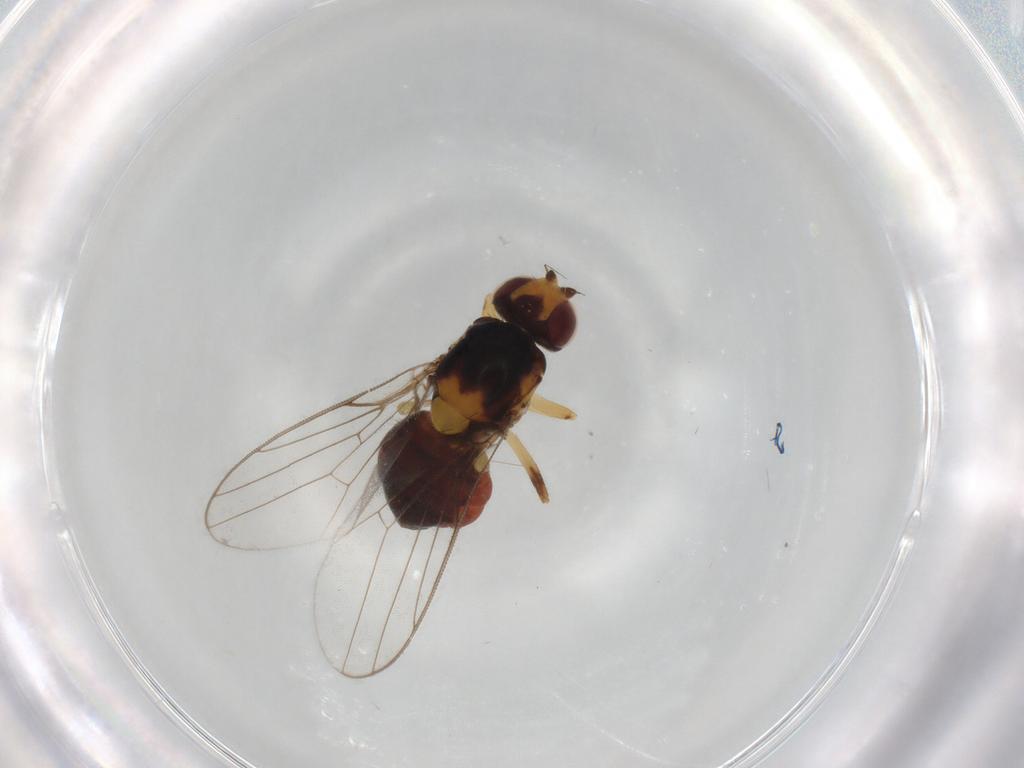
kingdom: Animalia
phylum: Arthropoda
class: Insecta
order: Diptera
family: Chloropidae
